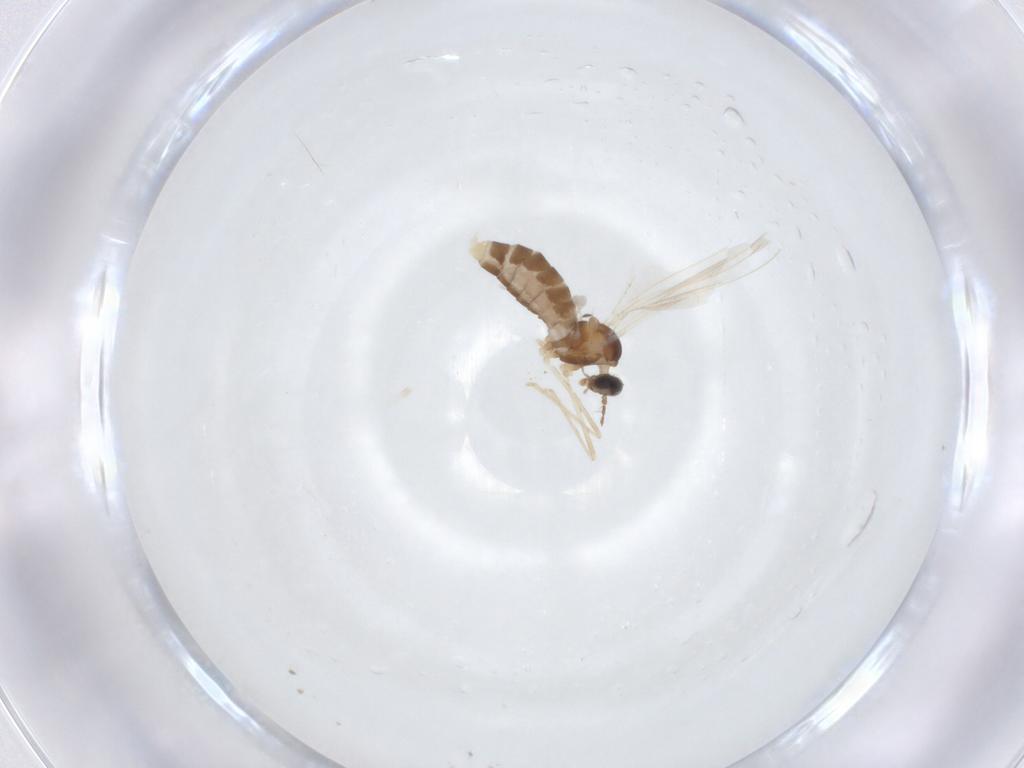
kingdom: Animalia
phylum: Arthropoda
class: Insecta
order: Diptera
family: Cecidomyiidae
